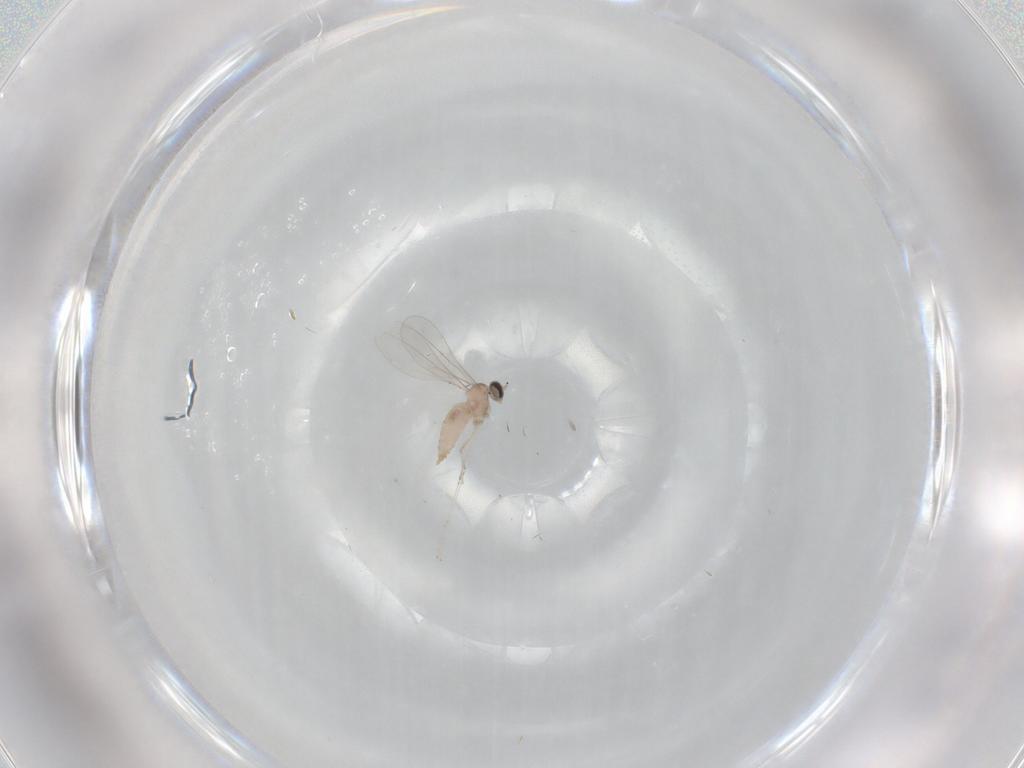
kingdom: Animalia
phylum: Arthropoda
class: Insecta
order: Diptera
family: Cecidomyiidae
